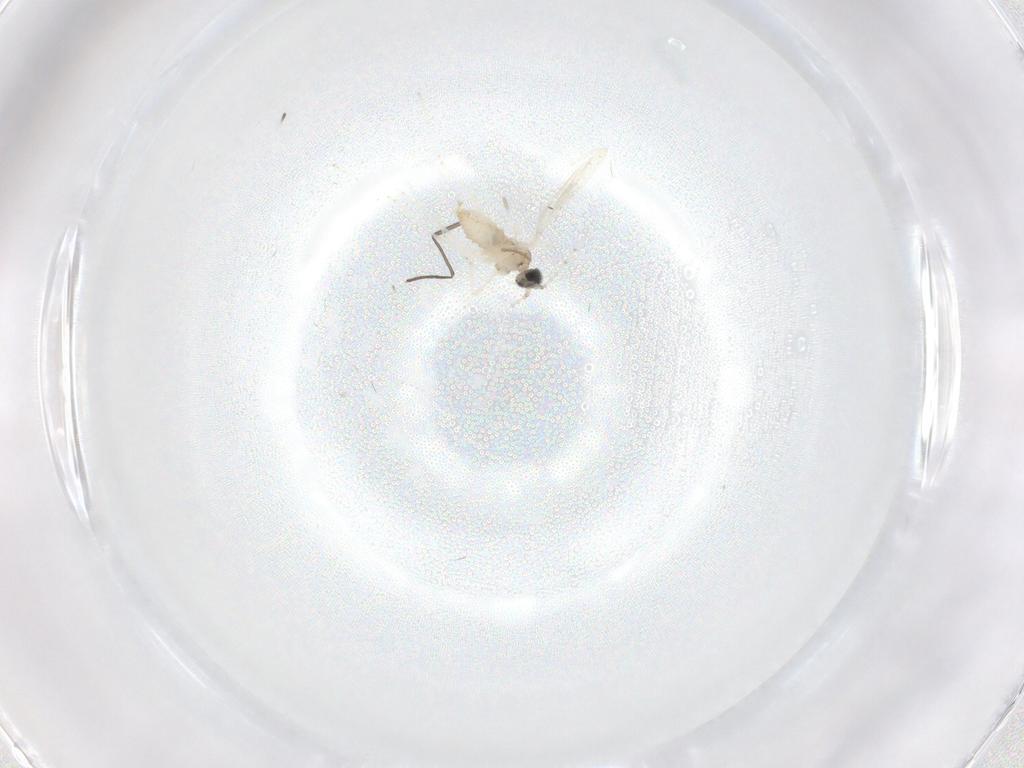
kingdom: Animalia
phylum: Arthropoda
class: Insecta
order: Diptera
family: Cecidomyiidae
